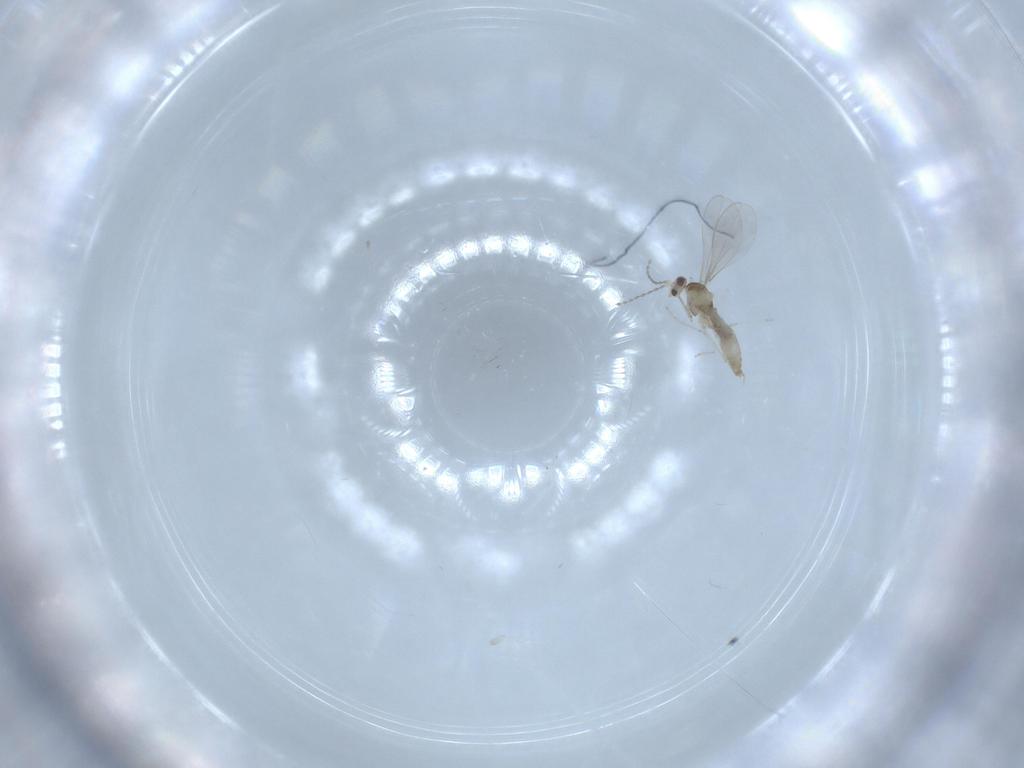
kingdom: Animalia
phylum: Arthropoda
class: Insecta
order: Diptera
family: Cecidomyiidae
